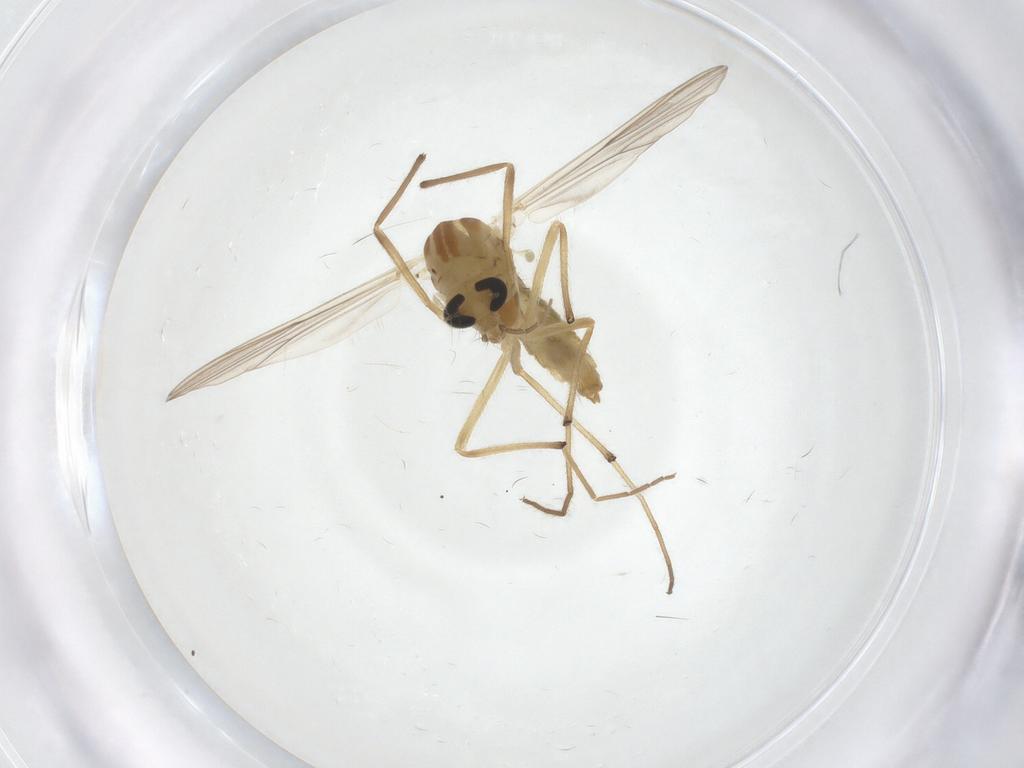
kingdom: Animalia
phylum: Arthropoda
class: Insecta
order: Diptera
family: Chironomidae
